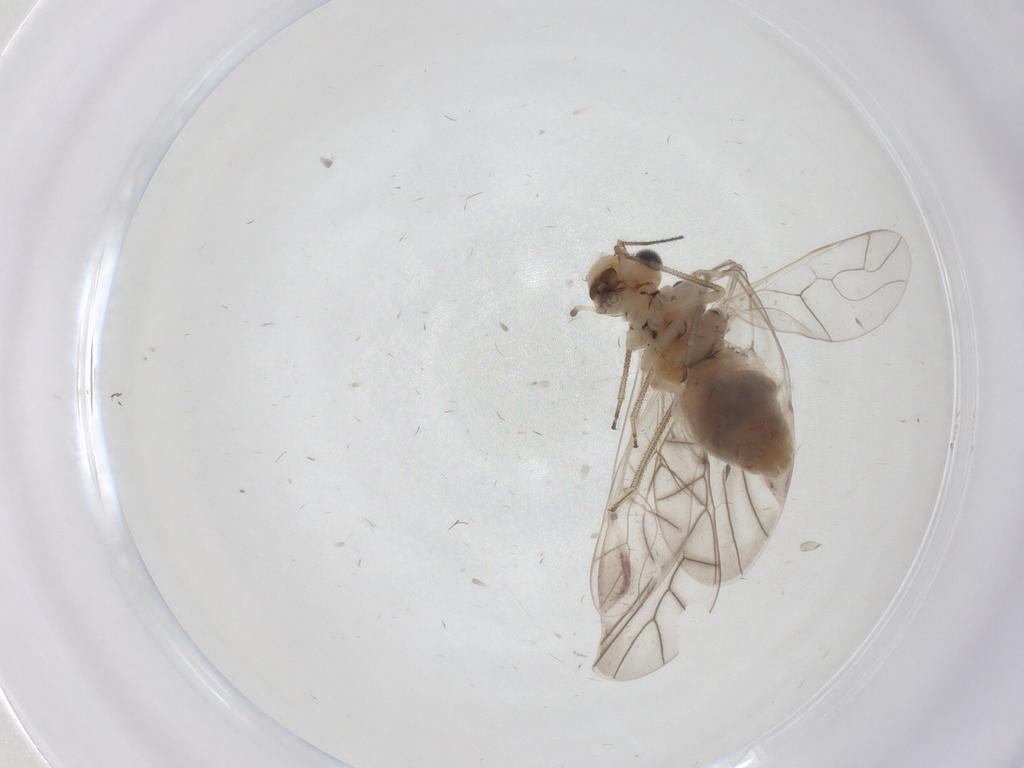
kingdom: Animalia
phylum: Arthropoda
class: Insecta
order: Psocodea
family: Psocidae
